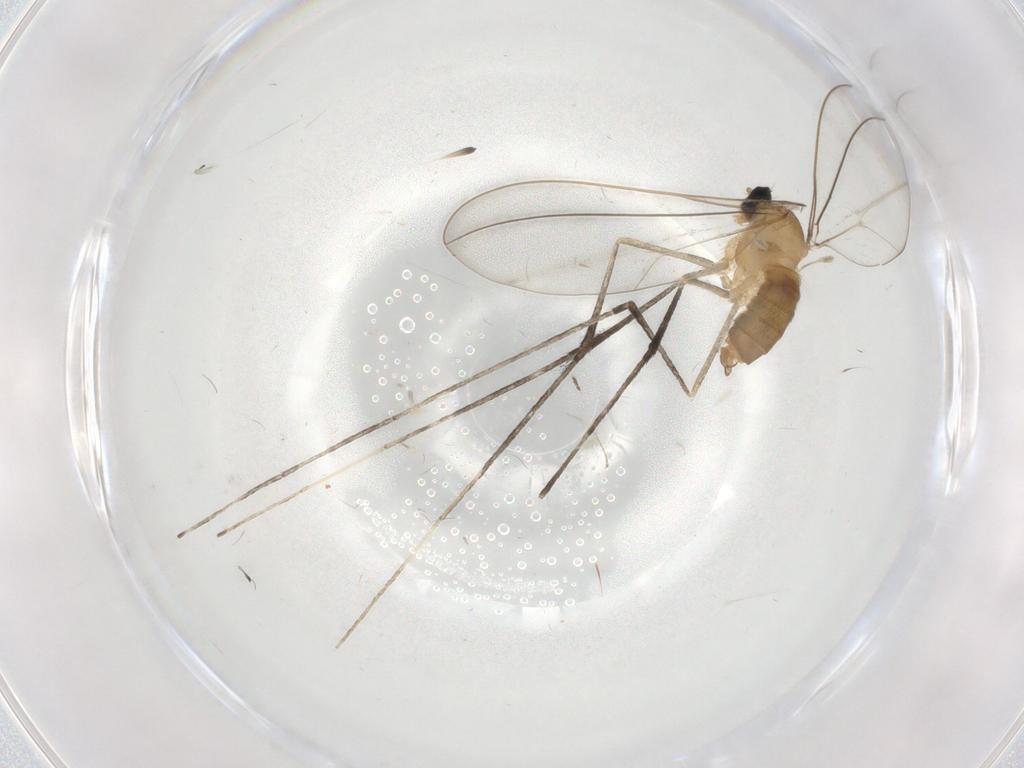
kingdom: Animalia
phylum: Arthropoda
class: Insecta
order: Diptera
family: Cecidomyiidae
